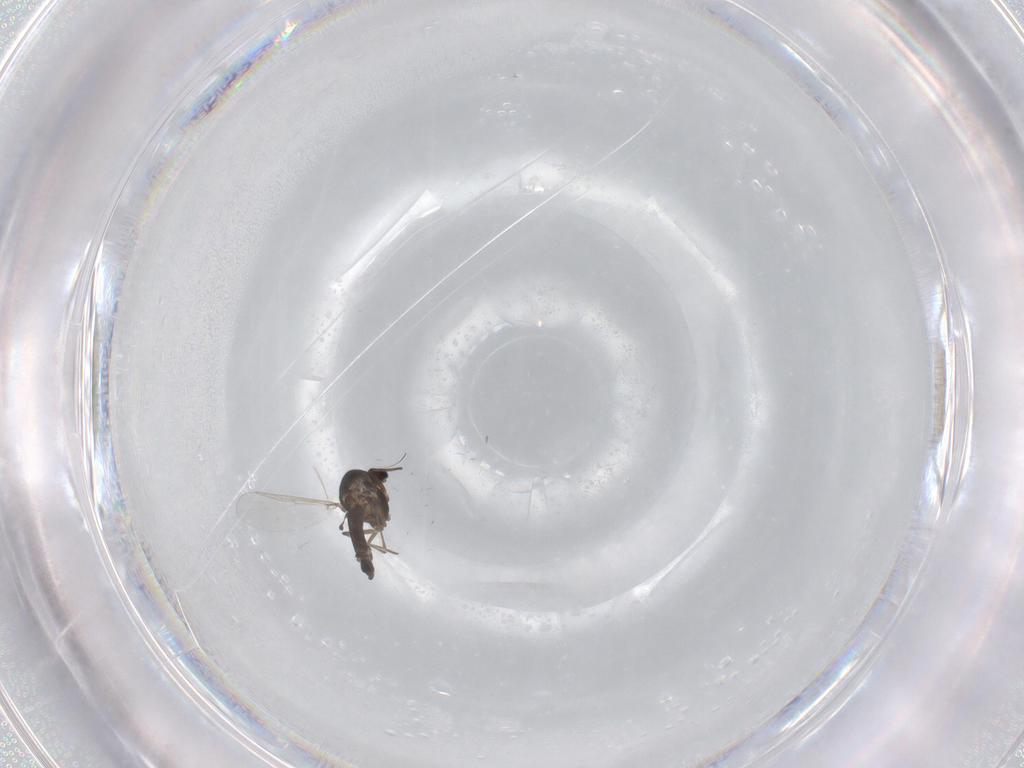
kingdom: Animalia
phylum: Arthropoda
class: Insecta
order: Diptera
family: Chironomidae
